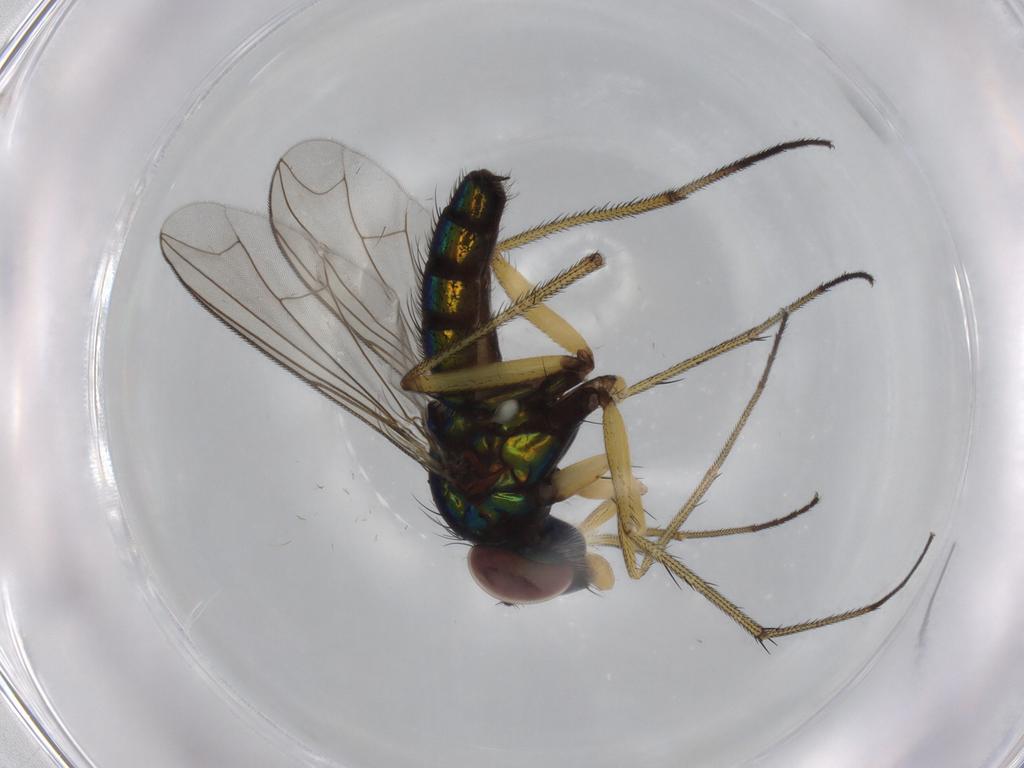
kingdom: Animalia
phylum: Arthropoda
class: Insecta
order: Diptera
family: Dolichopodidae
